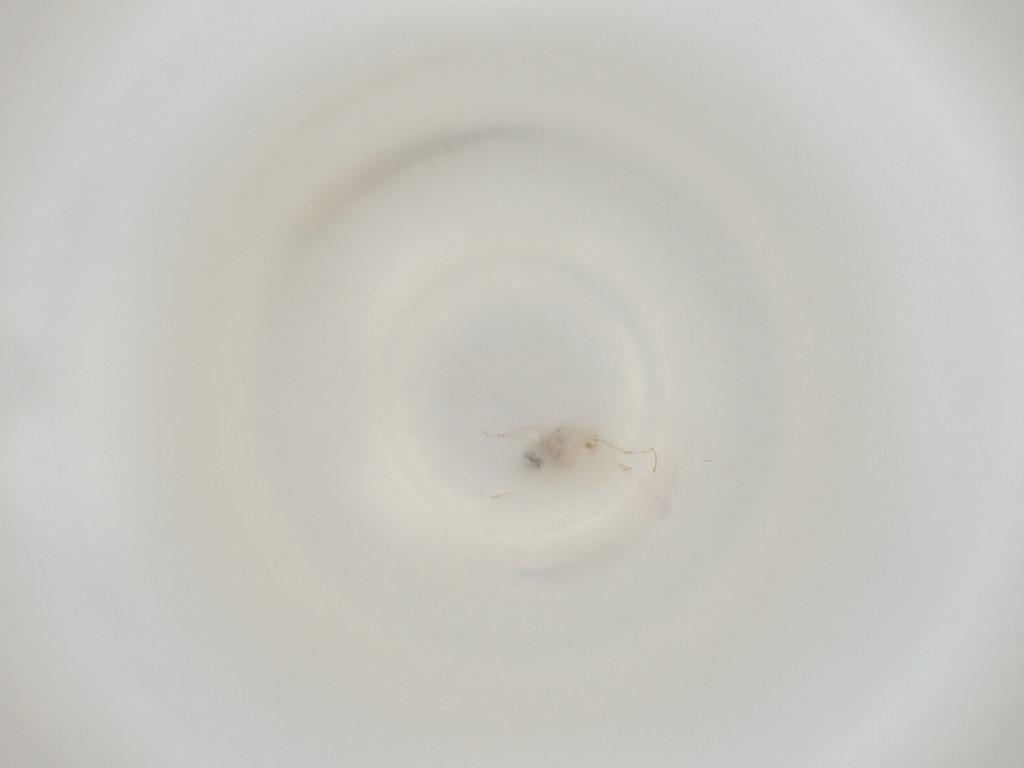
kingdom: Animalia
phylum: Arthropoda
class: Insecta
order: Diptera
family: Cecidomyiidae
